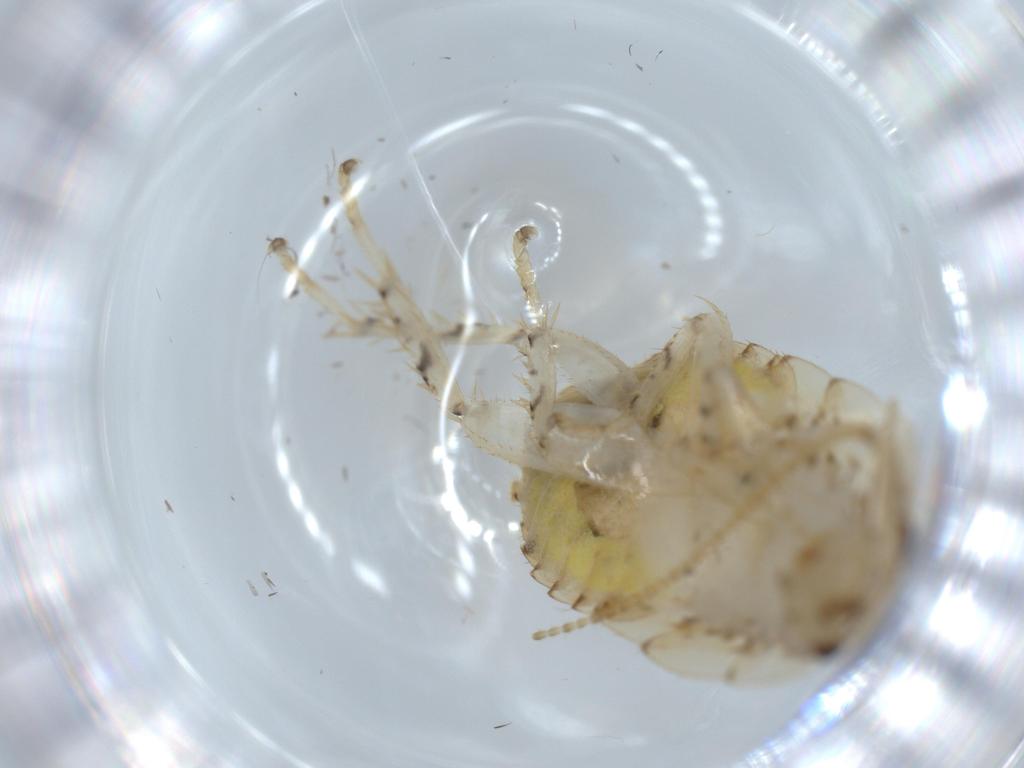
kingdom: Animalia
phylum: Arthropoda
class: Insecta
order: Blattodea
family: Ectobiidae
